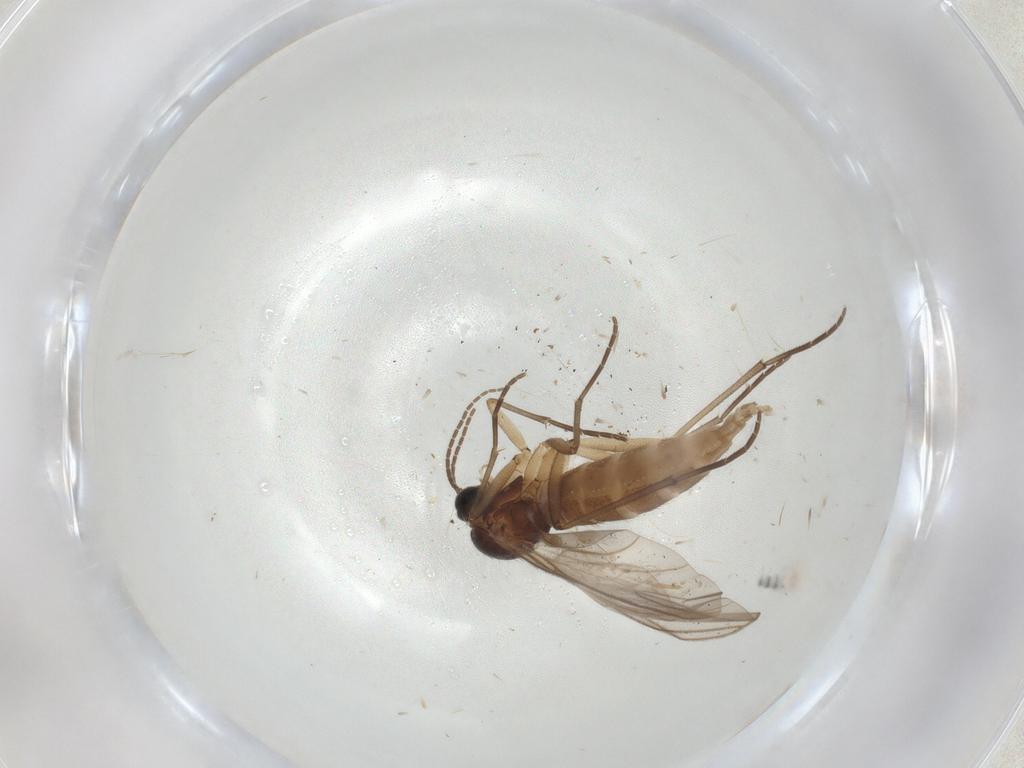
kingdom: Animalia
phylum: Arthropoda
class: Insecta
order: Diptera
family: Sciaridae
